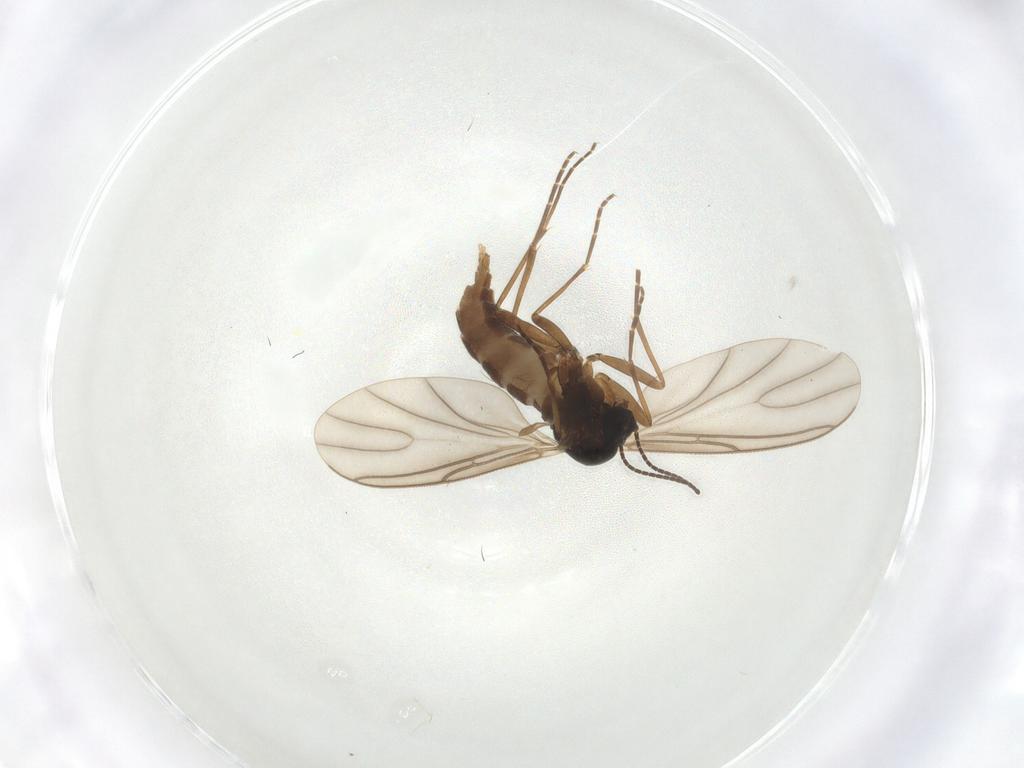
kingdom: Animalia
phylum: Arthropoda
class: Insecta
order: Diptera
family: Sciaridae
